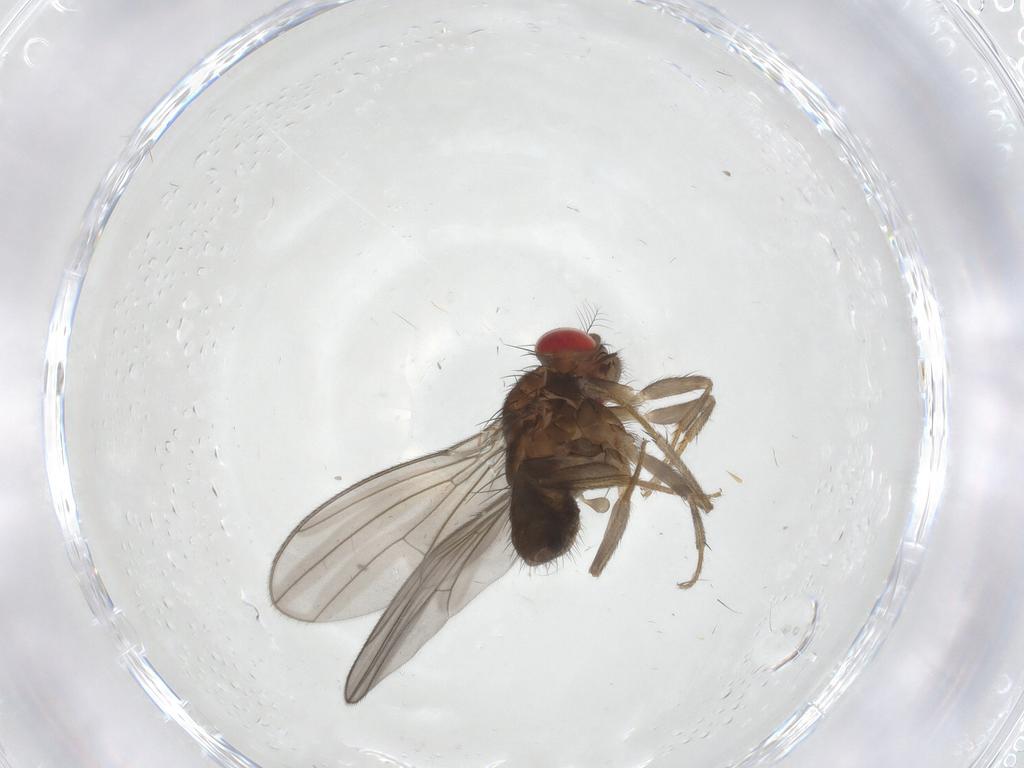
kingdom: Animalia
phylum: Arthropoda
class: Insecta
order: Diptera
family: Drosophilidae
